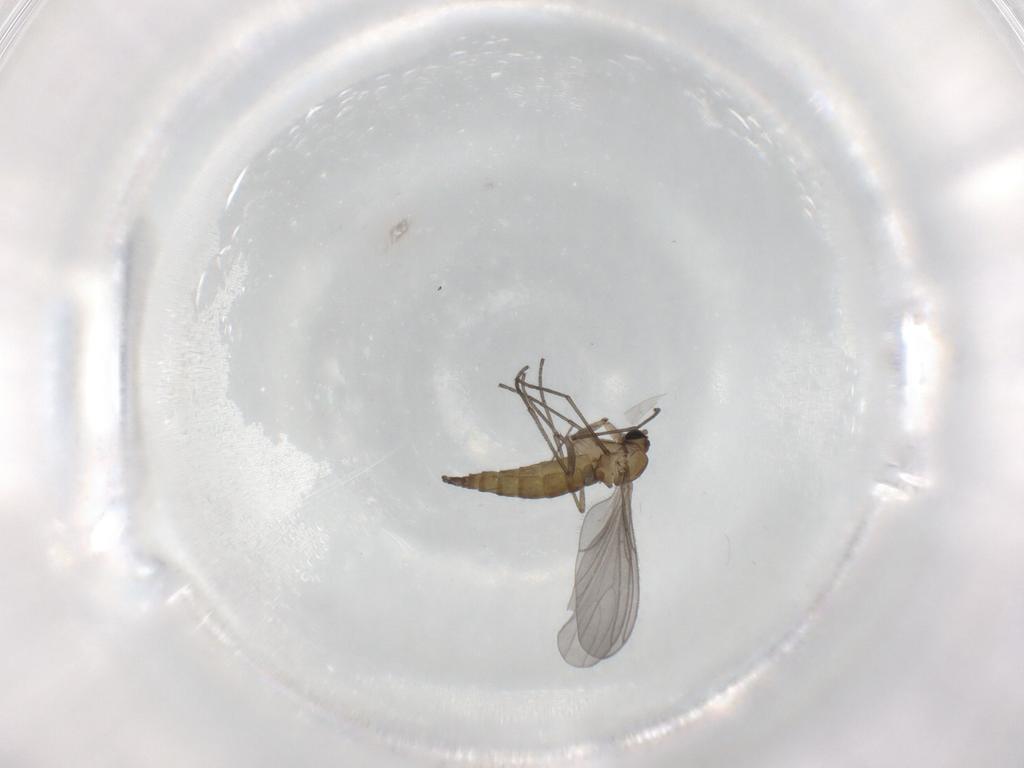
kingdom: Animalia
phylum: Arthropoda
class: Insecta
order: Diptera
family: Sciaridae
